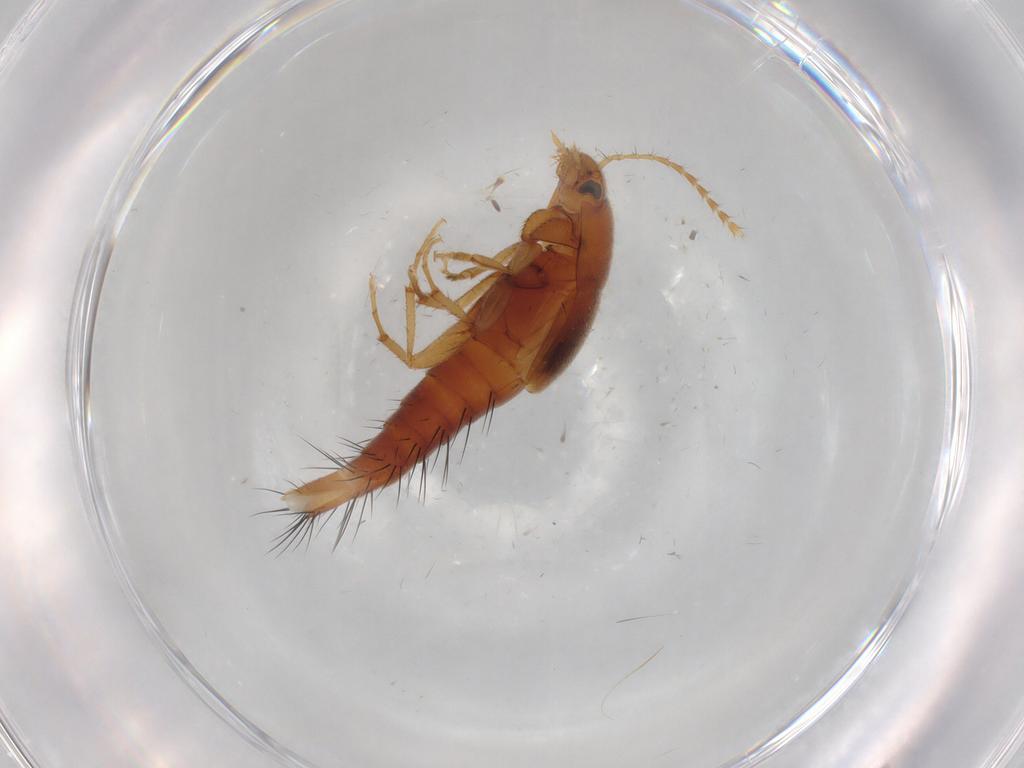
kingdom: Animalia
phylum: Arthropoda
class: Insecta
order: Coleoptera
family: Staphylinidae
